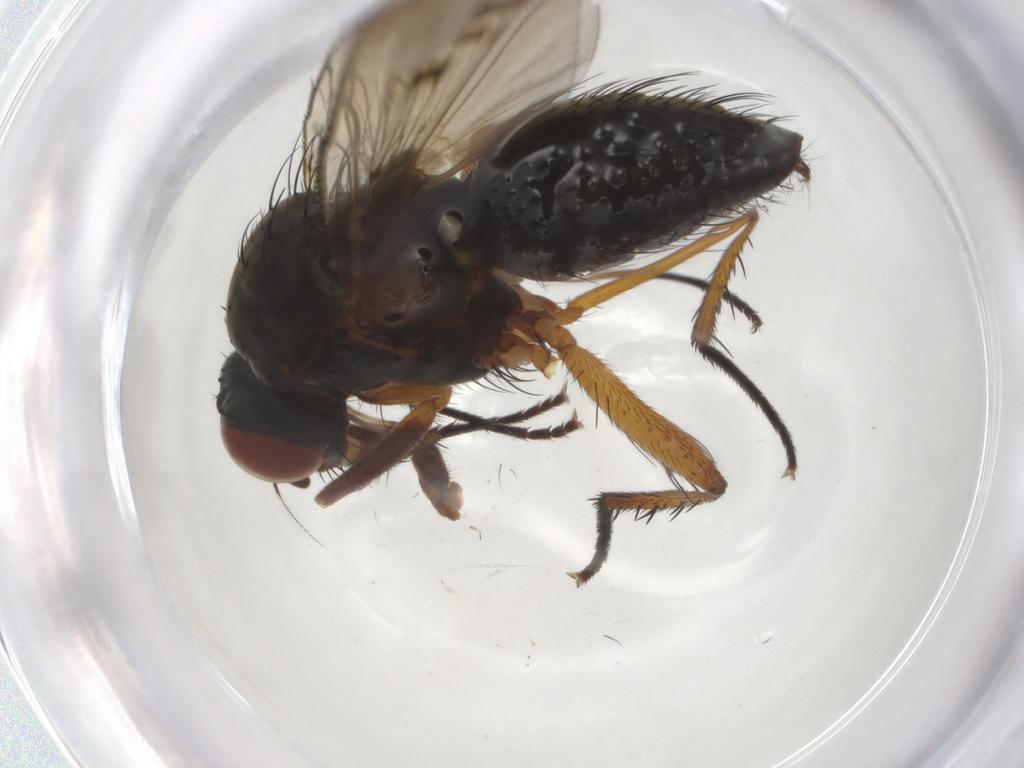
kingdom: Animalia
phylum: Arthropoda
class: Insecta
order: Diptera
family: Anthomyiidae
